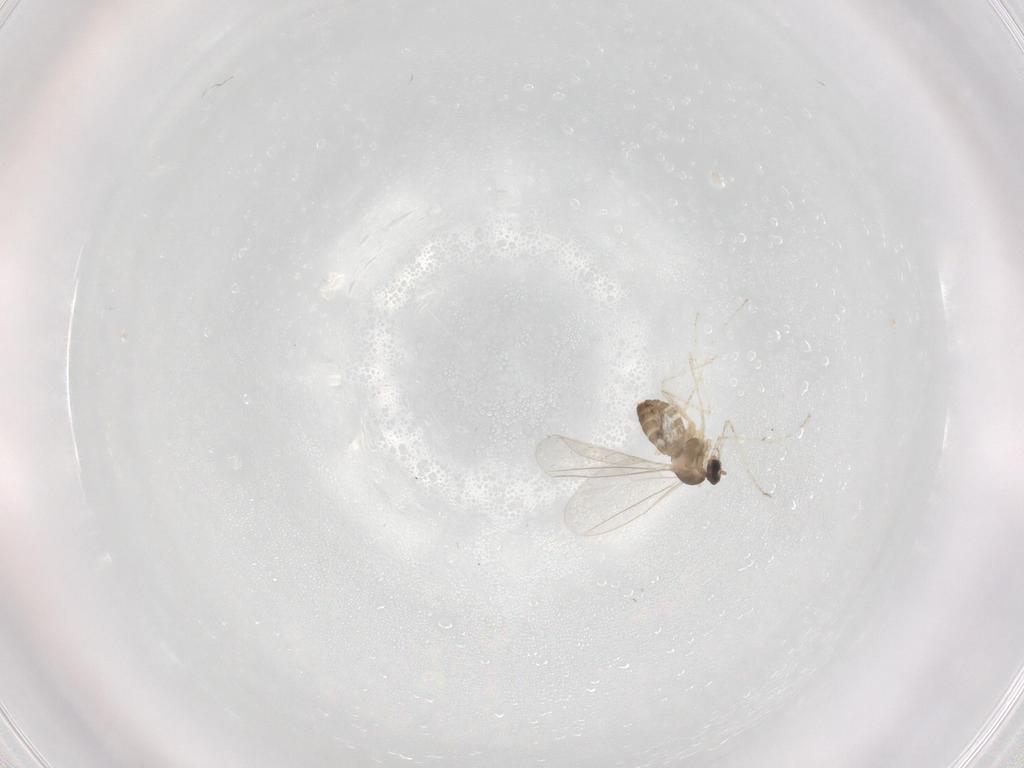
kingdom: Animalia
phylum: Arthropoda
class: Insecta
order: Diptera
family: Cecidomyiidae
